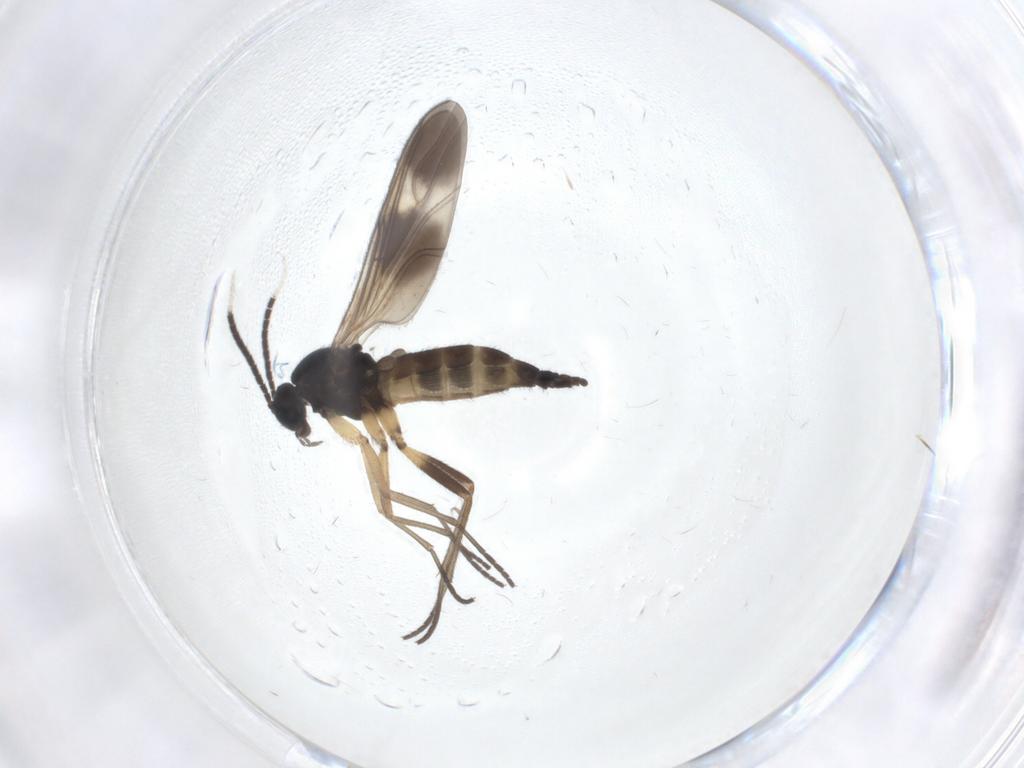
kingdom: Animalia
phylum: Arthropoda
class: Insecta
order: Diptera
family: Sciaridae
